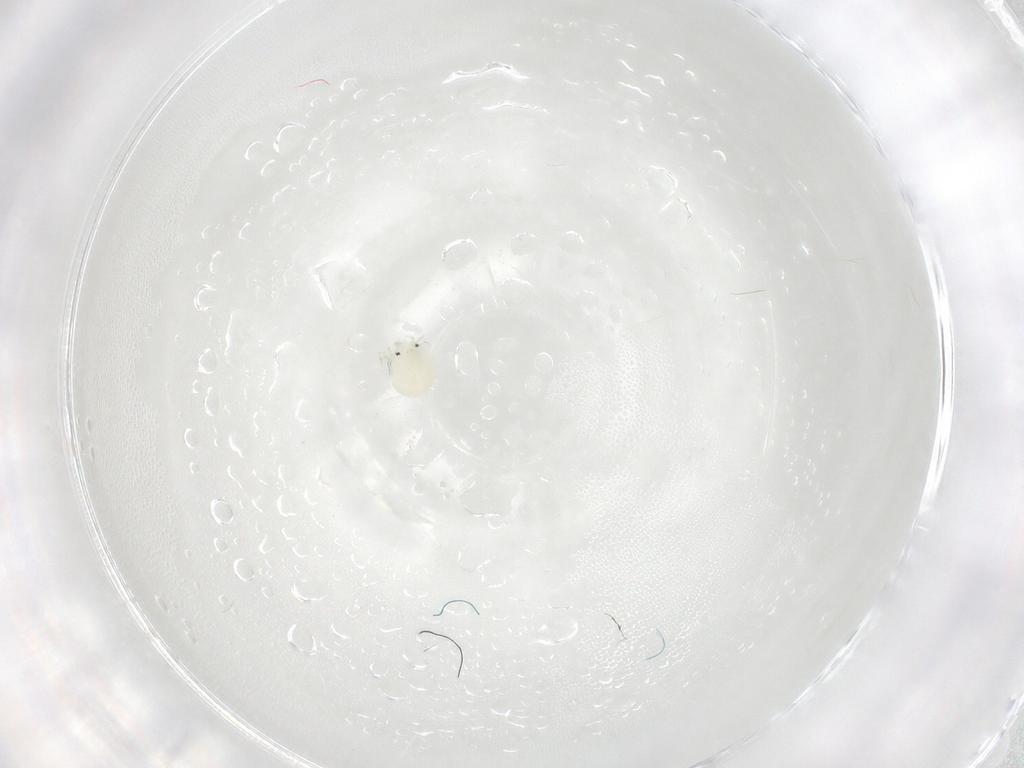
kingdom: Animalia
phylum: Arthropoda
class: Arachnida
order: Trombidiformes
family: Arrenuridae
